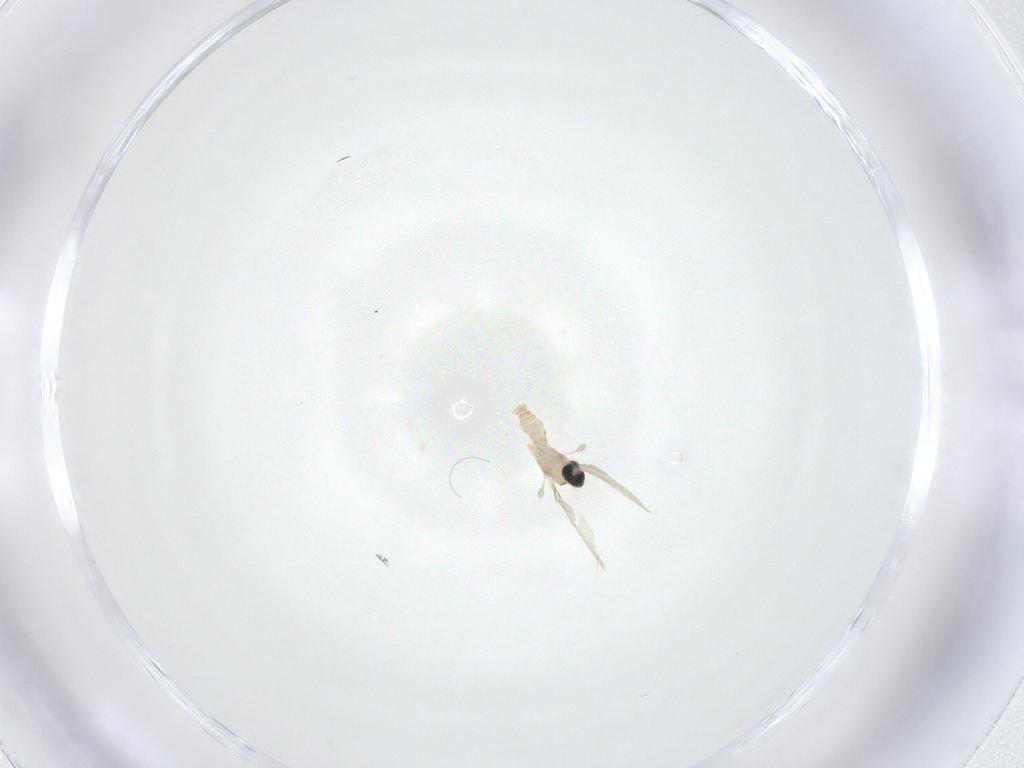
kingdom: Animalia
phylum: Arthropoda
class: Insecta
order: Diptera
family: Cecidomyiidae
